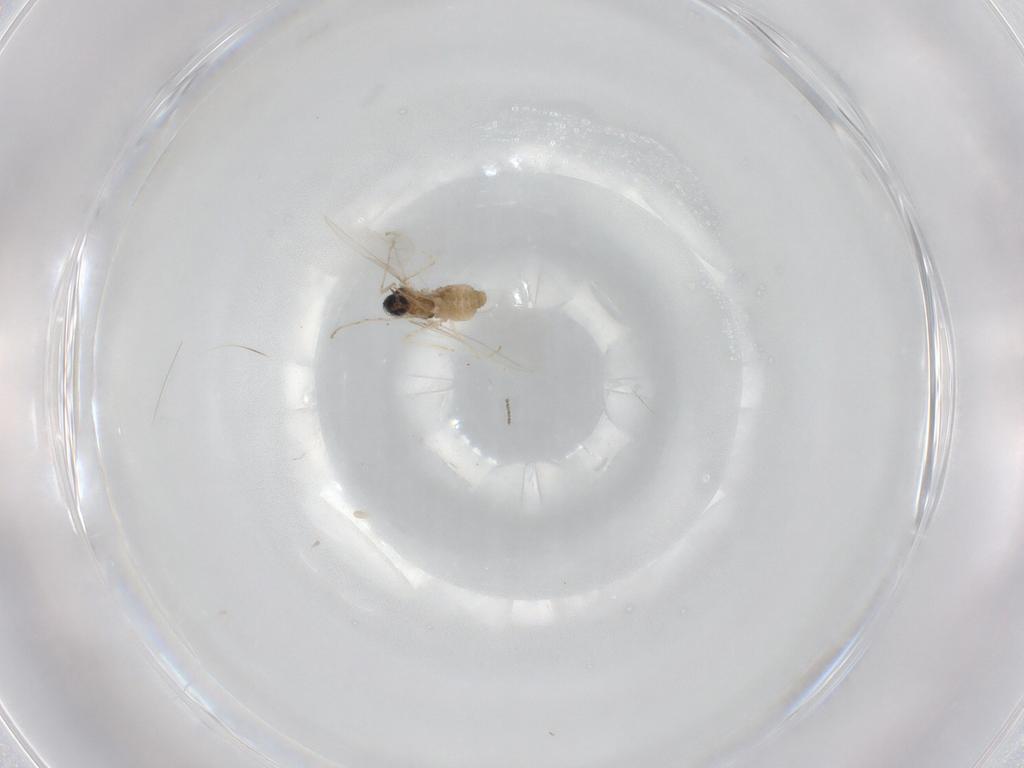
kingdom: Animalia
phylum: Arthropoda
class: Insecta
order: Diptera
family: Cecidomyiidae
